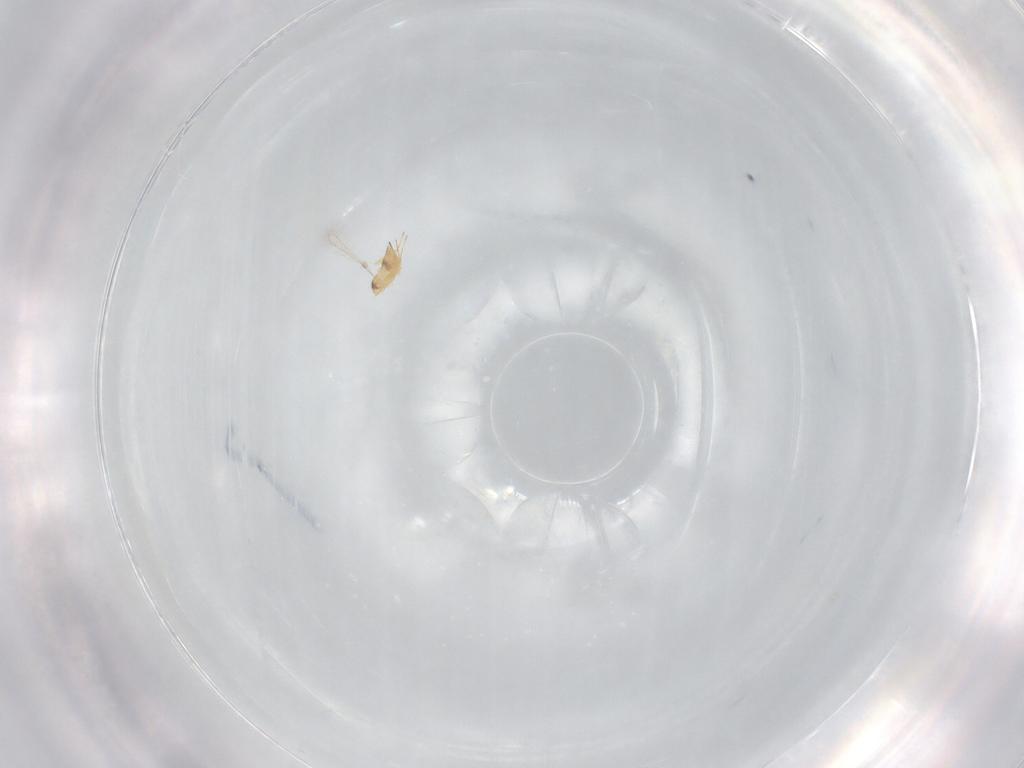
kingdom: Animalia
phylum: Arthropoda
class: Insecta
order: Hymenoptera
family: Mymaridae
